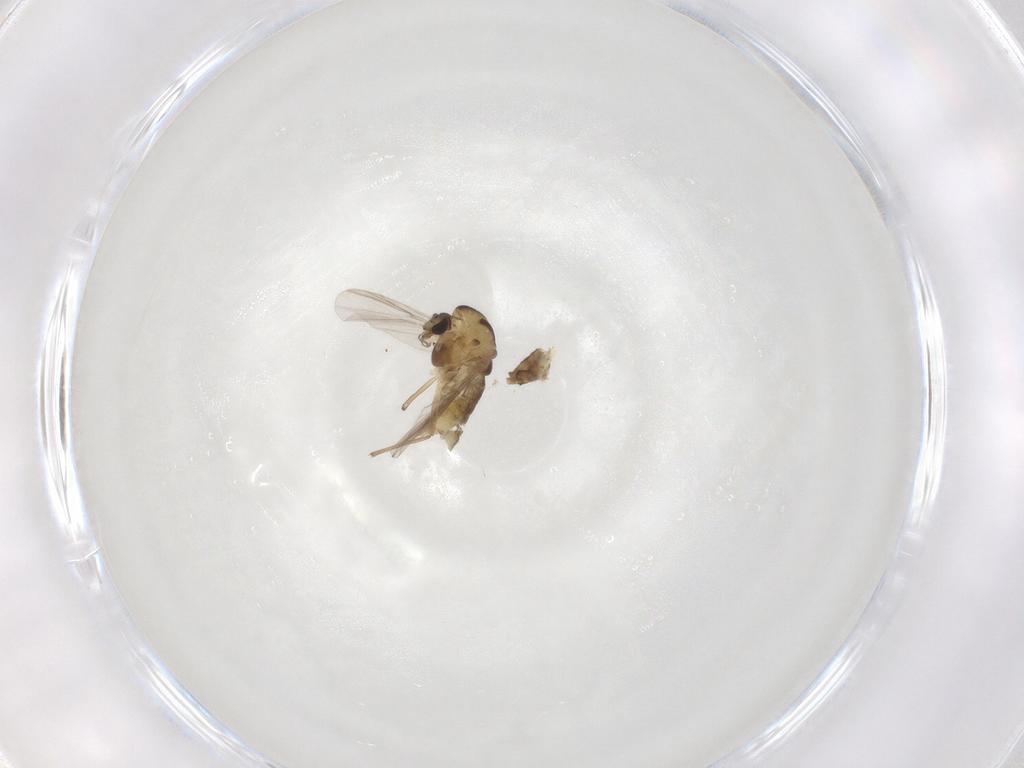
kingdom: Animalia
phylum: Arthropoda
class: Insecta
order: Diptera
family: Chironomidae
